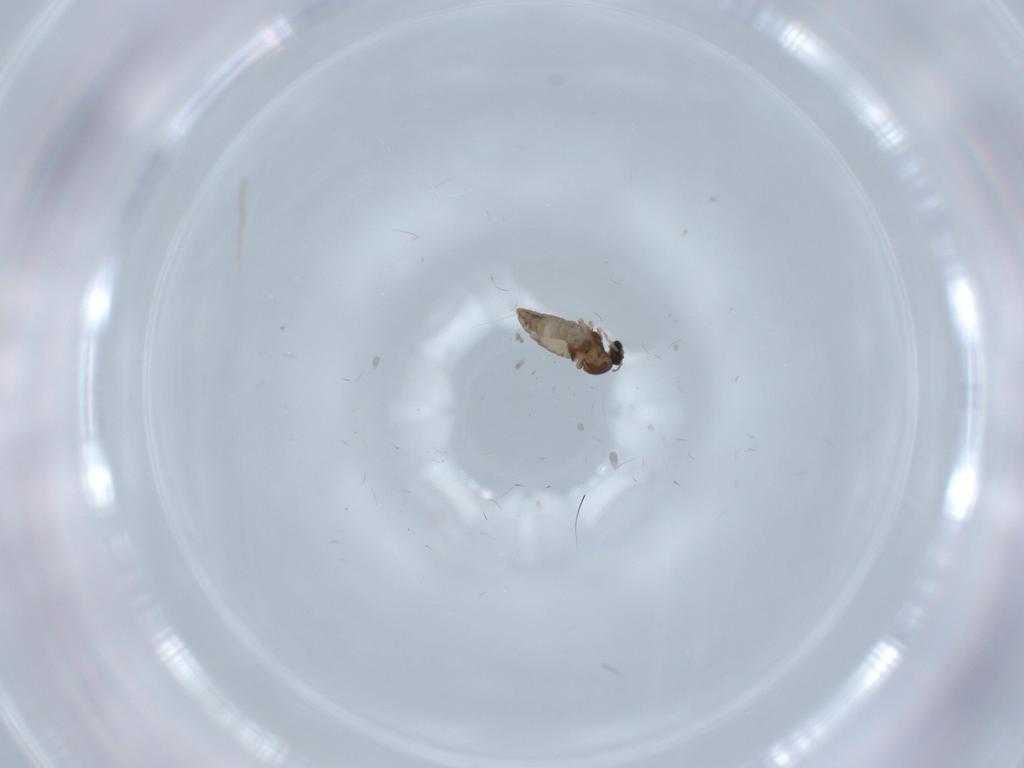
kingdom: Animalia
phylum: Arthropoda
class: Insecta
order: Diptera
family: Cecidomyiidae
